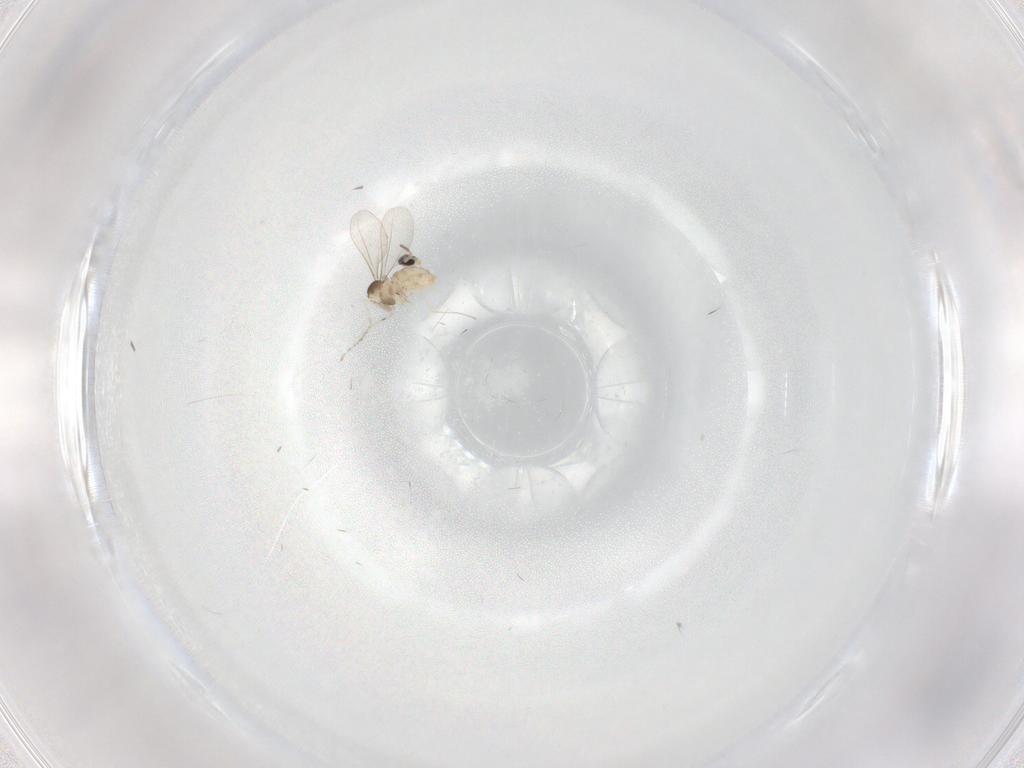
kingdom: Animalia
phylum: Arthropoda
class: Insecta
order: Diptera
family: Cecidomyiidae
